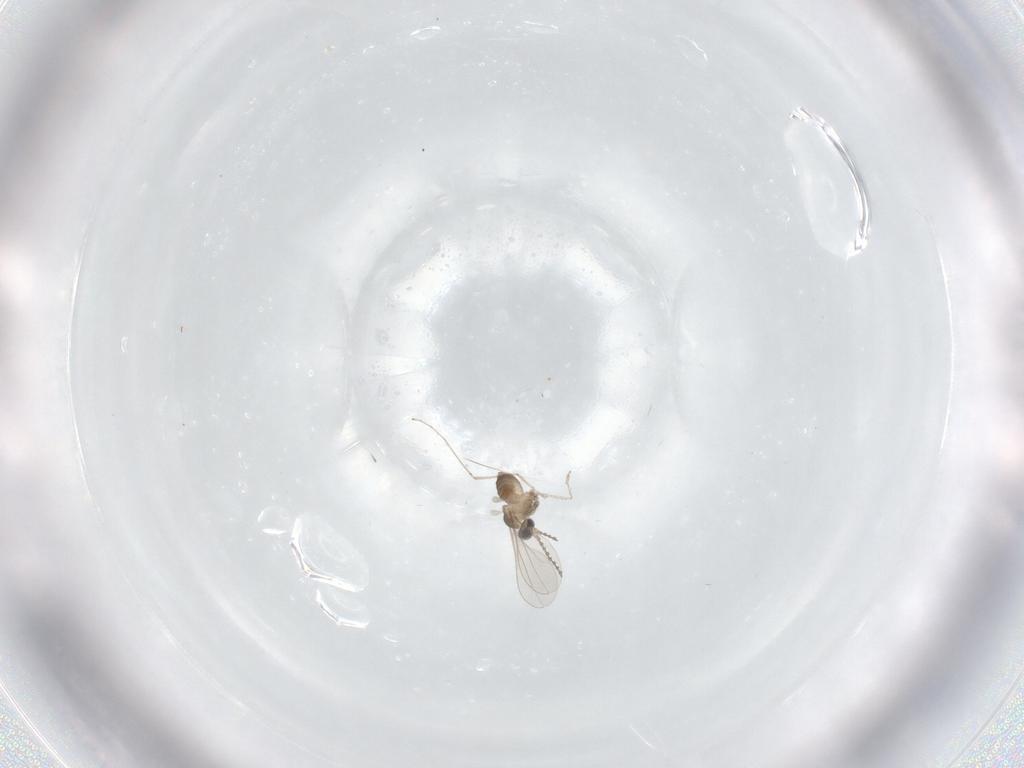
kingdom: Animalia
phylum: Arthropoda
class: Insecta
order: Diptera
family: Cecidomyiidae
